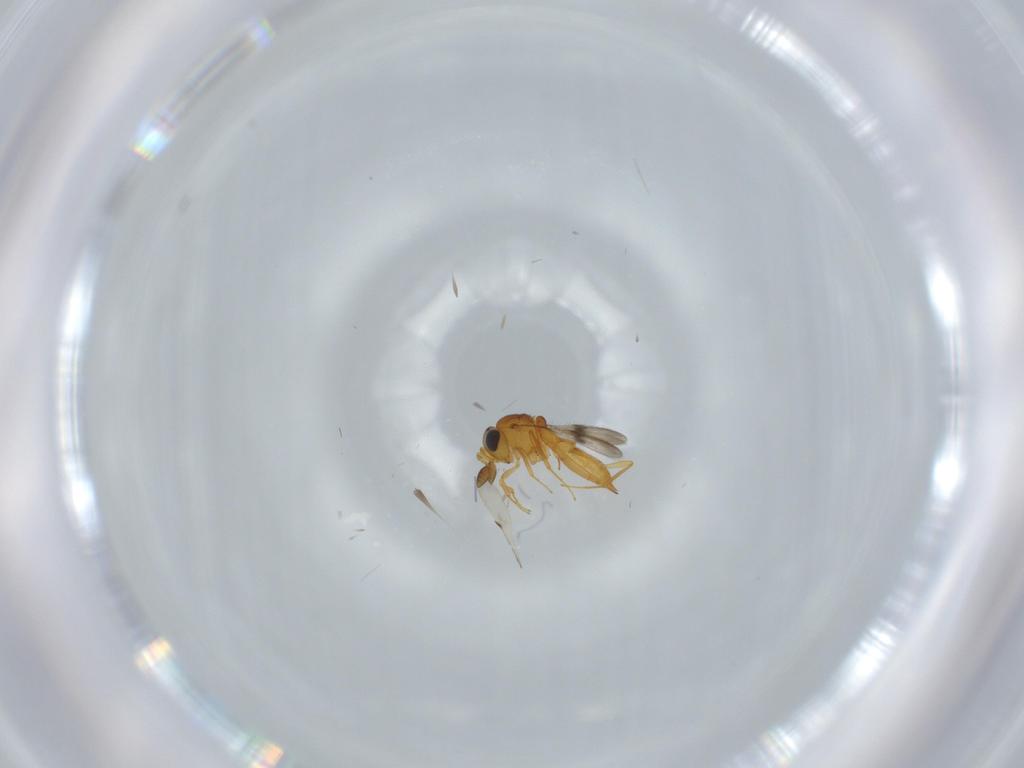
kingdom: Animalia
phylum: Arthropoda
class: Insecta
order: Hymenoptera
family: Scelionidae
